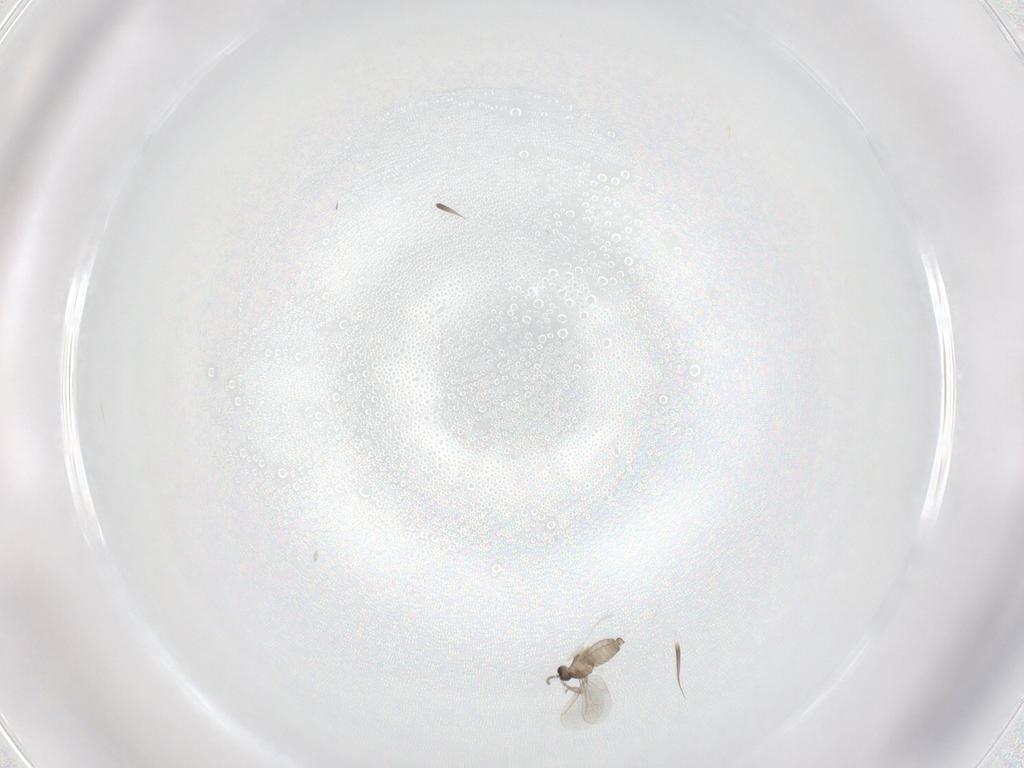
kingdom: Animalia
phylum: Arthropoda
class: Insecta
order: Diptera
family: Cecidomyiidae
